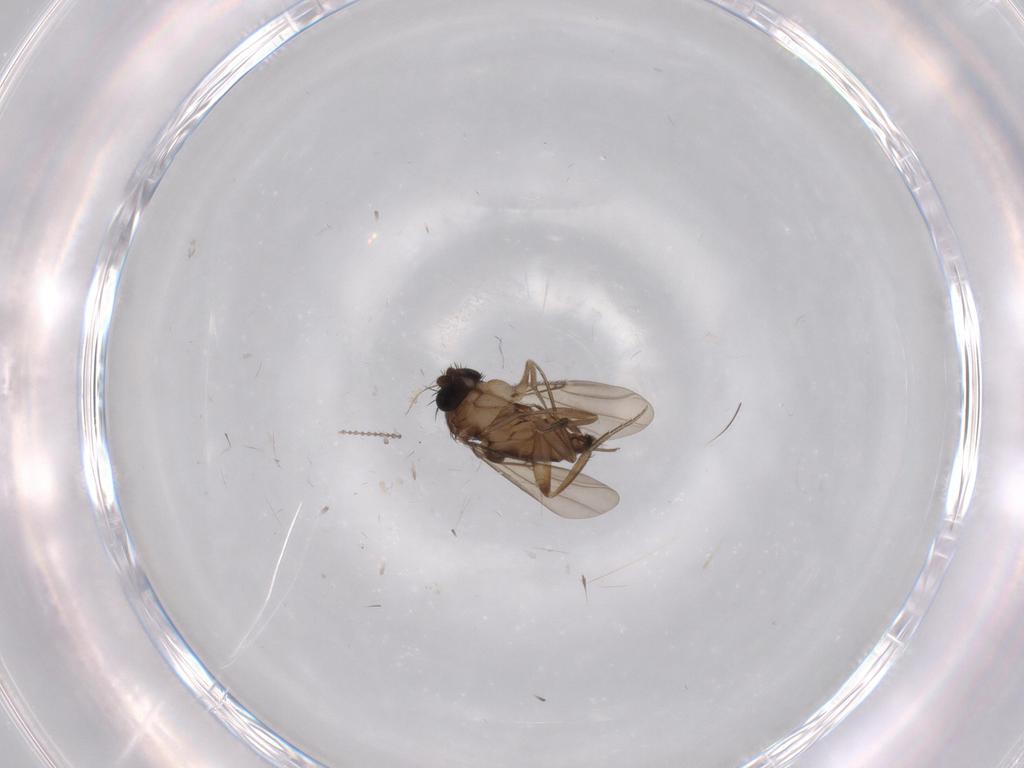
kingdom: Animalia
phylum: Arthropoda
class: Insecta
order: Diptera
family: Phoridae
